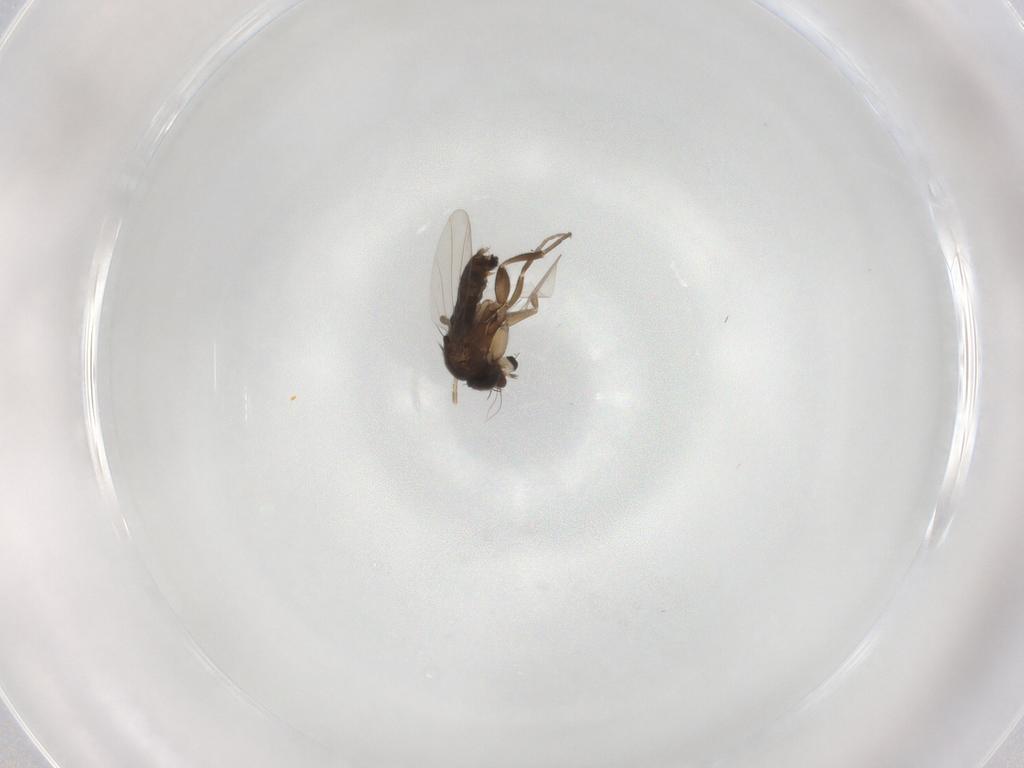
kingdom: Animalia
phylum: Arthropoda
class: Insecta
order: Diptera
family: Phoridae
